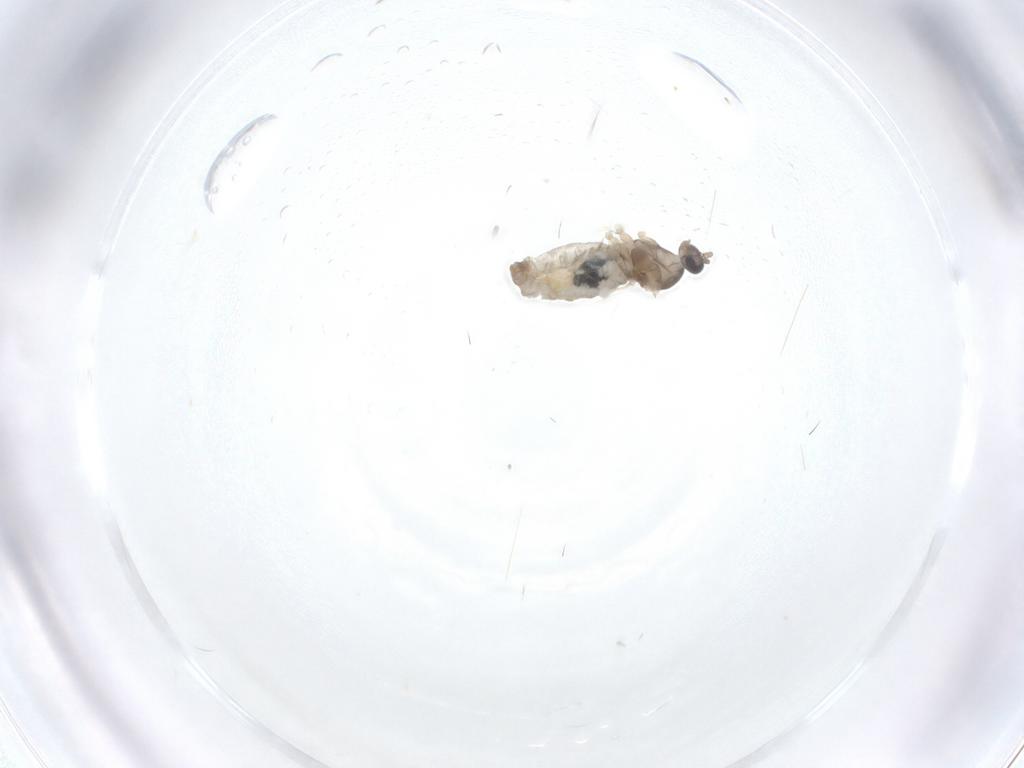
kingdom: Animalia
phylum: Arthropoda
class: Insecta
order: Diptera
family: Cecidomyiidae
